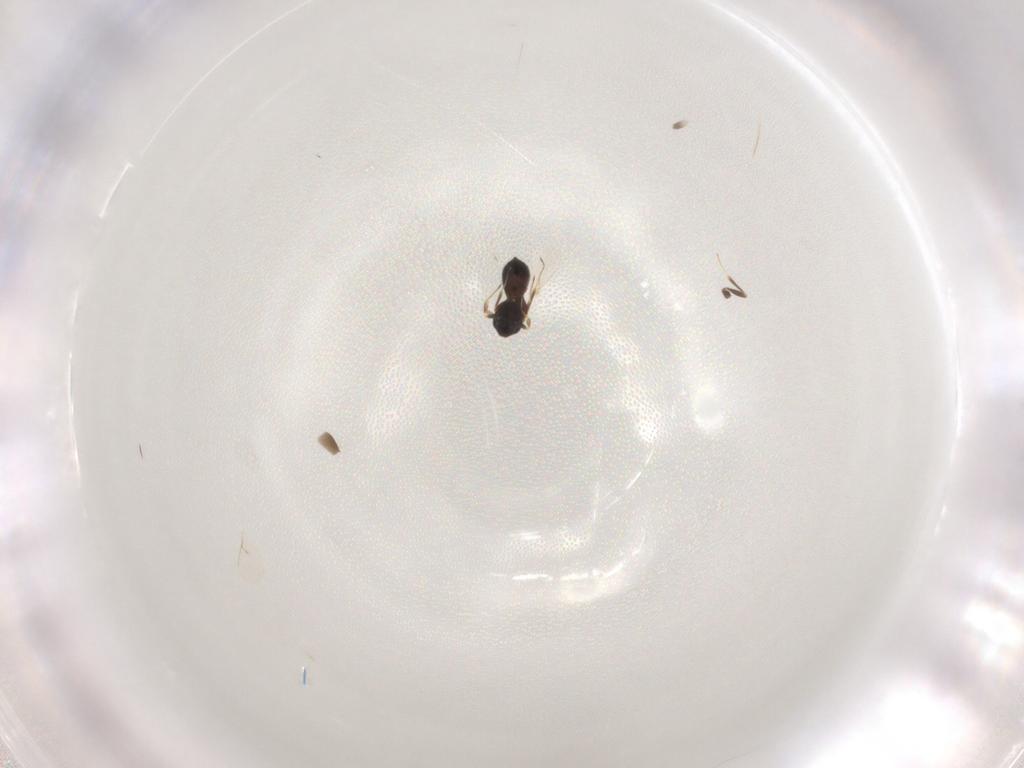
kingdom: Animalia
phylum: Arthropoda
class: Insecta
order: Hymenoptera
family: Scelionidae
